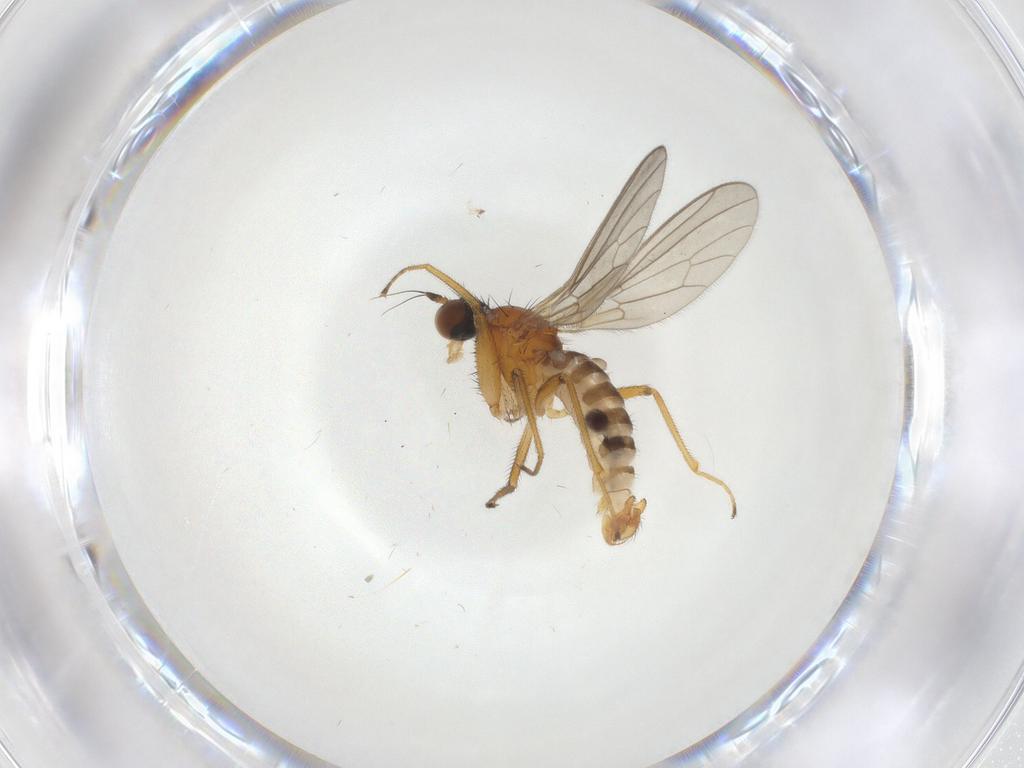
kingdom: Animalia
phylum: Arthropoda
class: Insecta
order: Diptera
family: Empididae
